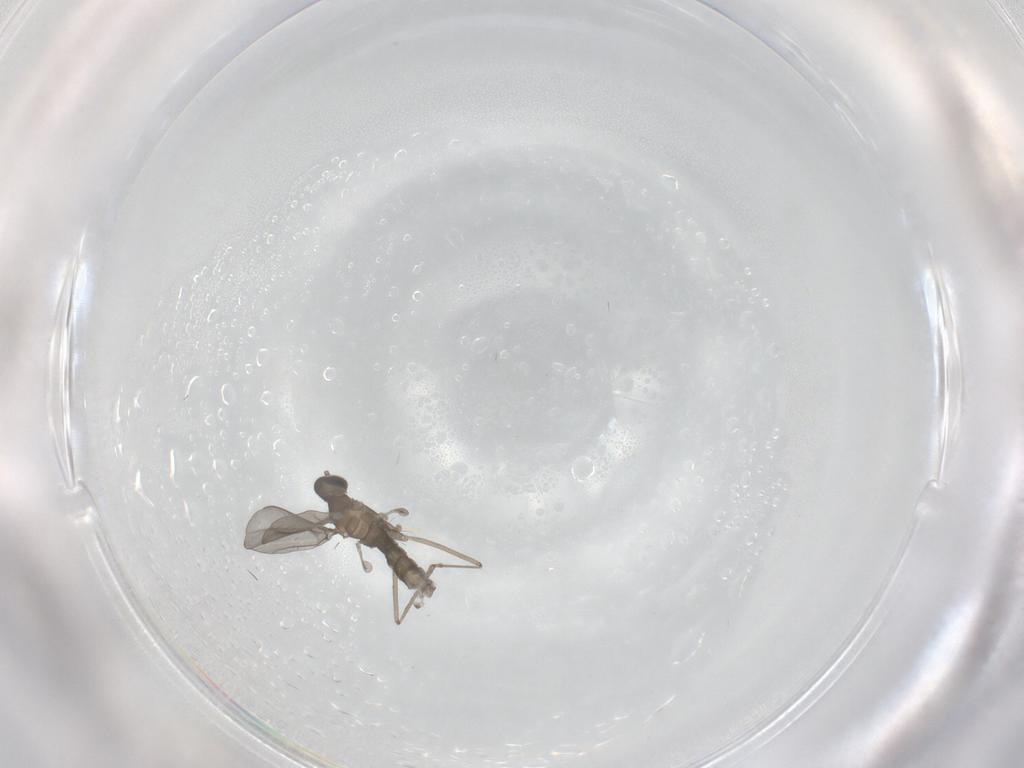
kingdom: Animalia
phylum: Arthropoda
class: Insecta
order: Diptera
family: Cecidomyiidae
